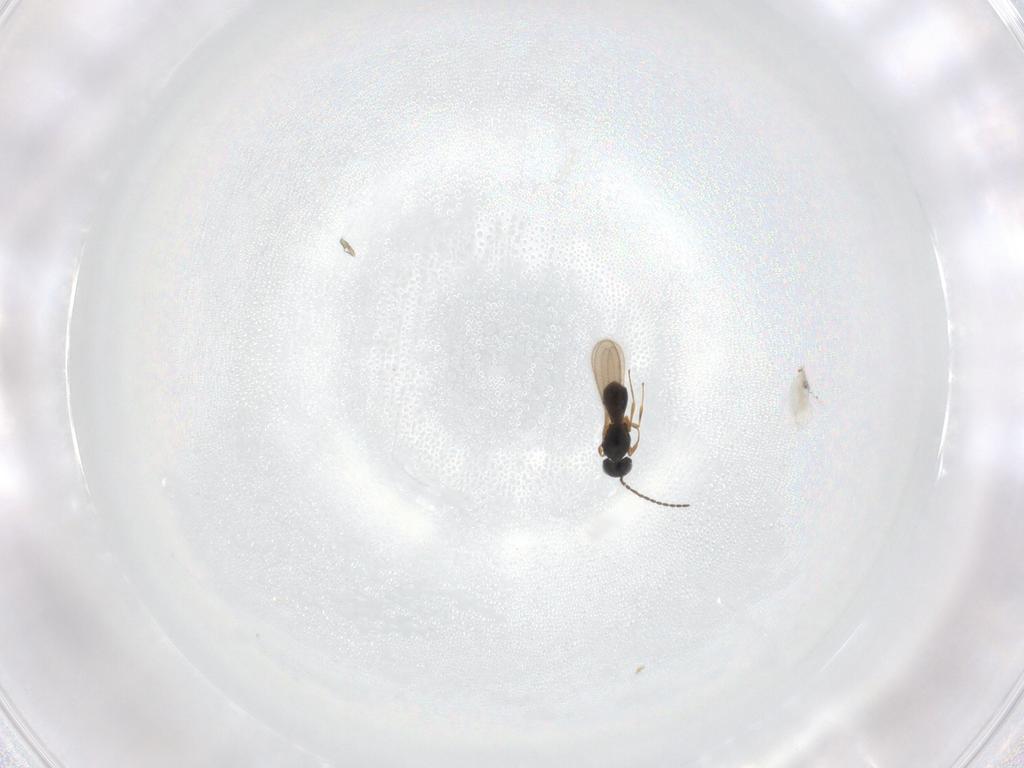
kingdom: Animalia
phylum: Arthropoda
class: Insecta
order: Hymenoptera
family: Scelionidae
